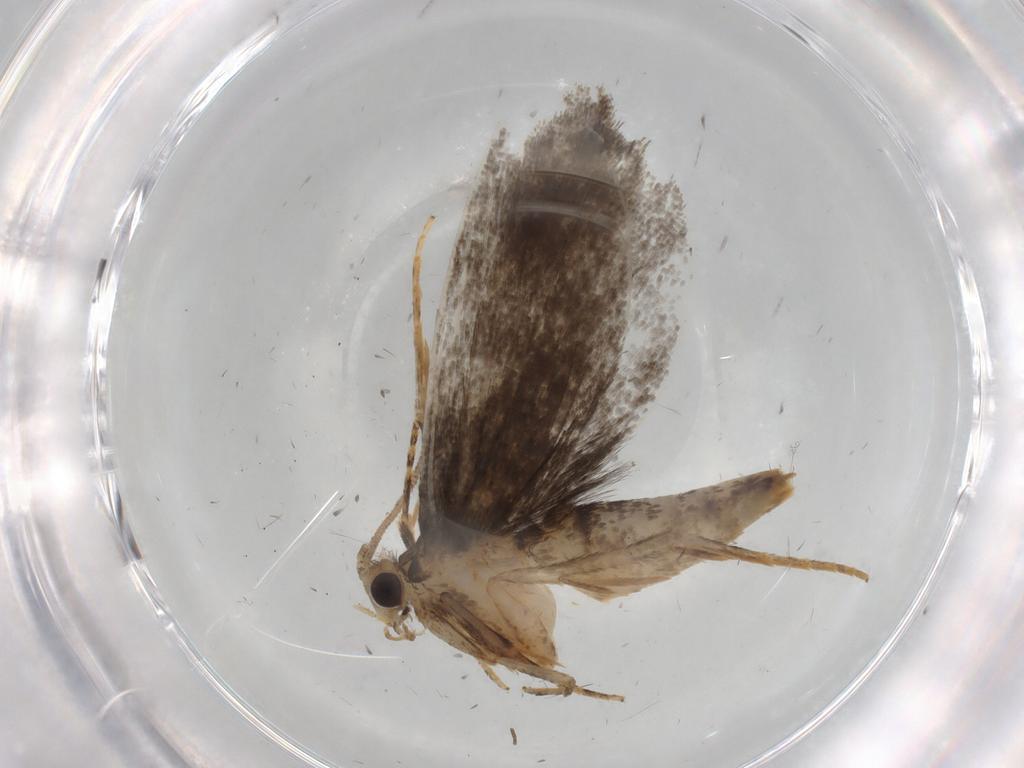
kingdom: Animalia
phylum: Arthropoda
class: Insecta
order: Lepidoptera
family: Tineidae
